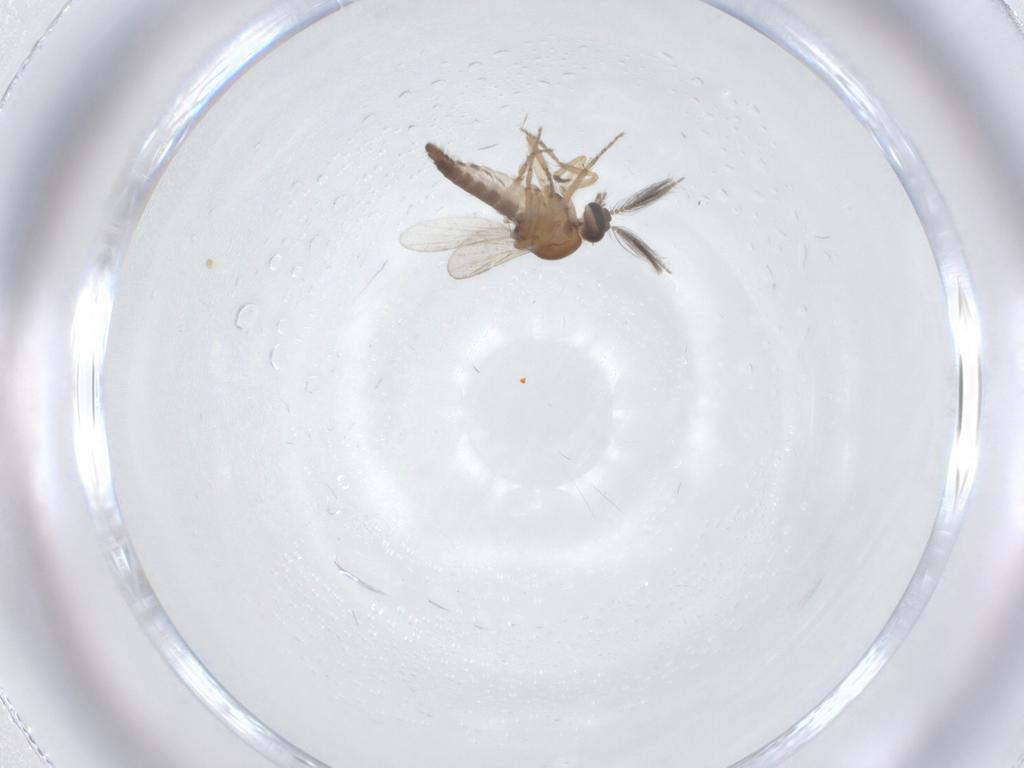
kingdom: Animalia
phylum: Arthropoda
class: Insecta
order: Diptera
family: Ceratopogonidae
